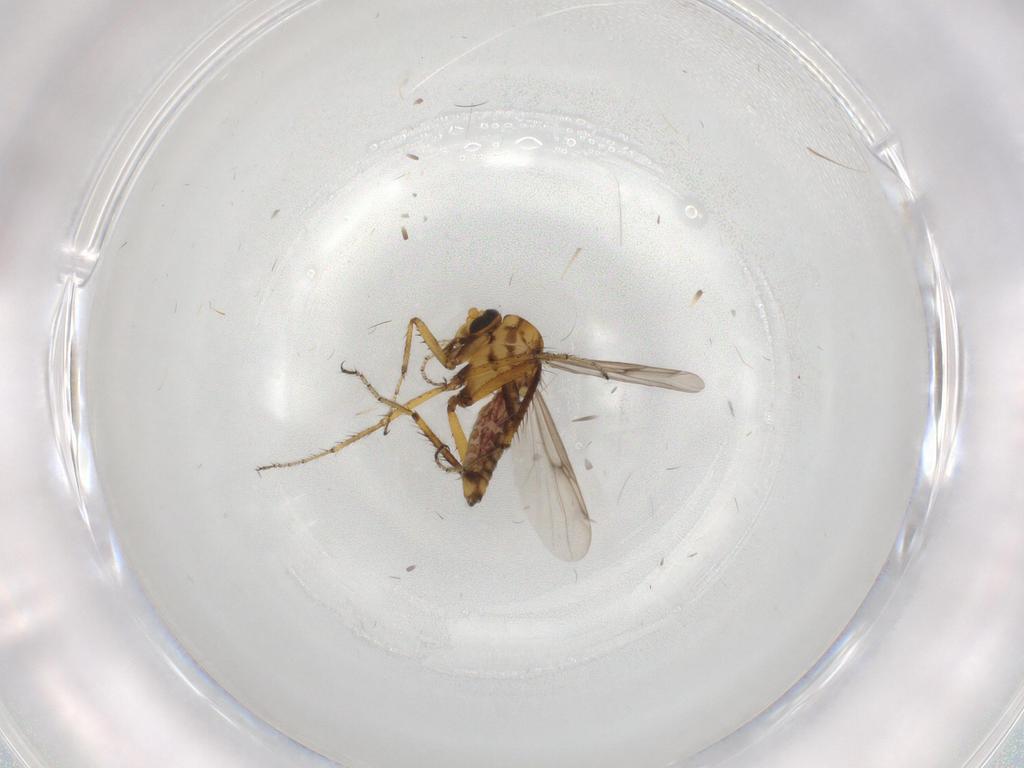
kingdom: Animalia
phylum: Arthropoda
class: Insecta
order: Diptera
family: Ceratopogonidae
